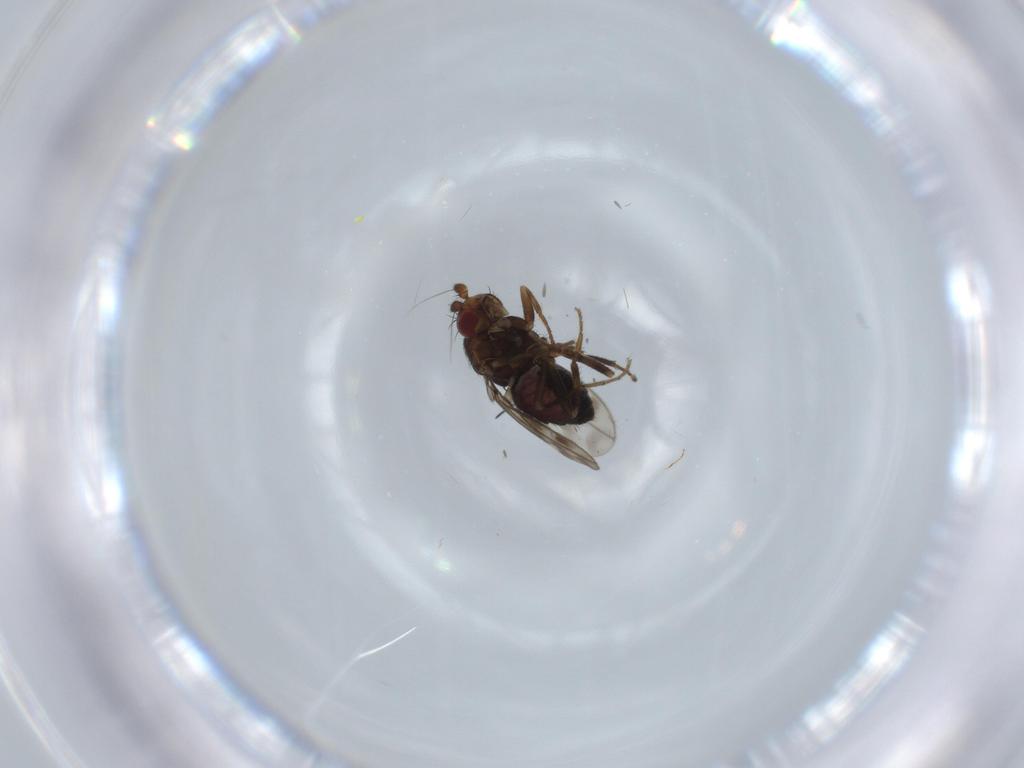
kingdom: Animalia
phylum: Arthropoda
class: Insecta
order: Diptera
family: Sphaeroceridae
